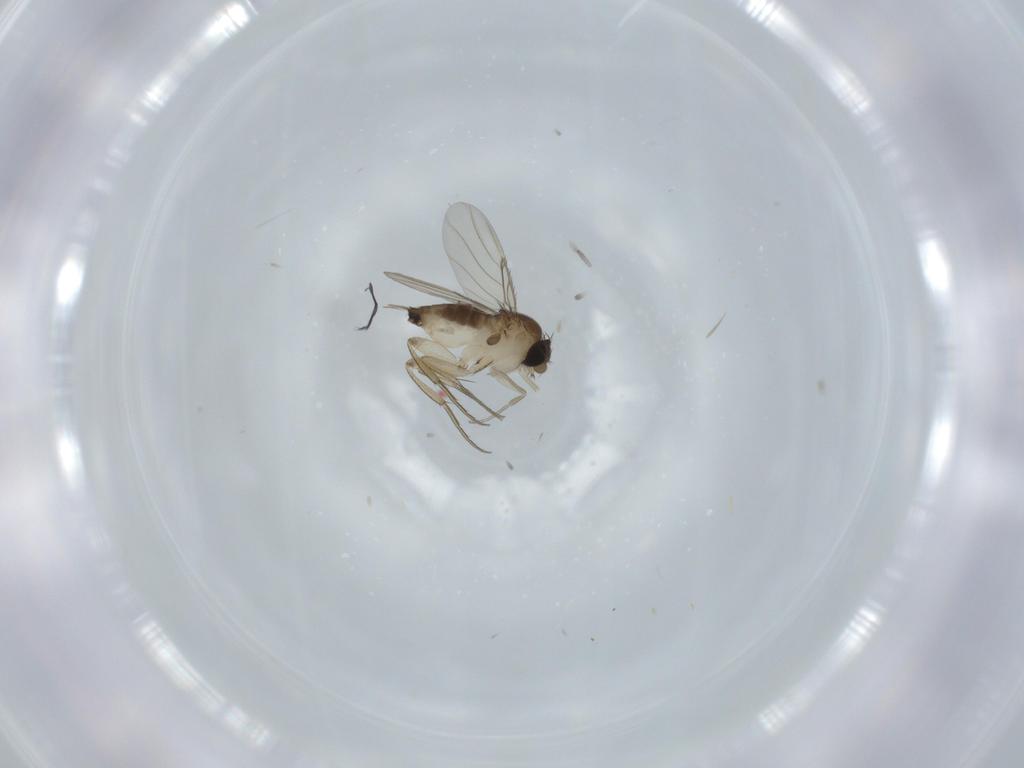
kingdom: Animalia
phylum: Arthropoda
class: Insecta
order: Diptera
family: Phoridae
